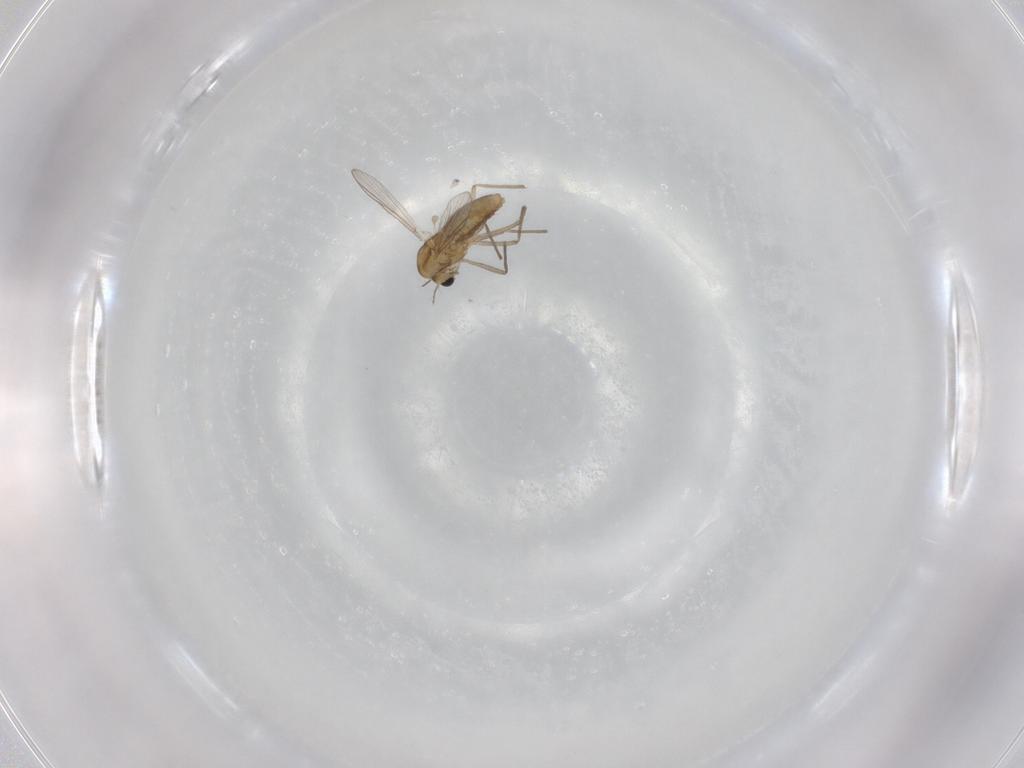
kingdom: Animalia
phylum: Arthropoda
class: Insecta
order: Diptera
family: Chironomidae
